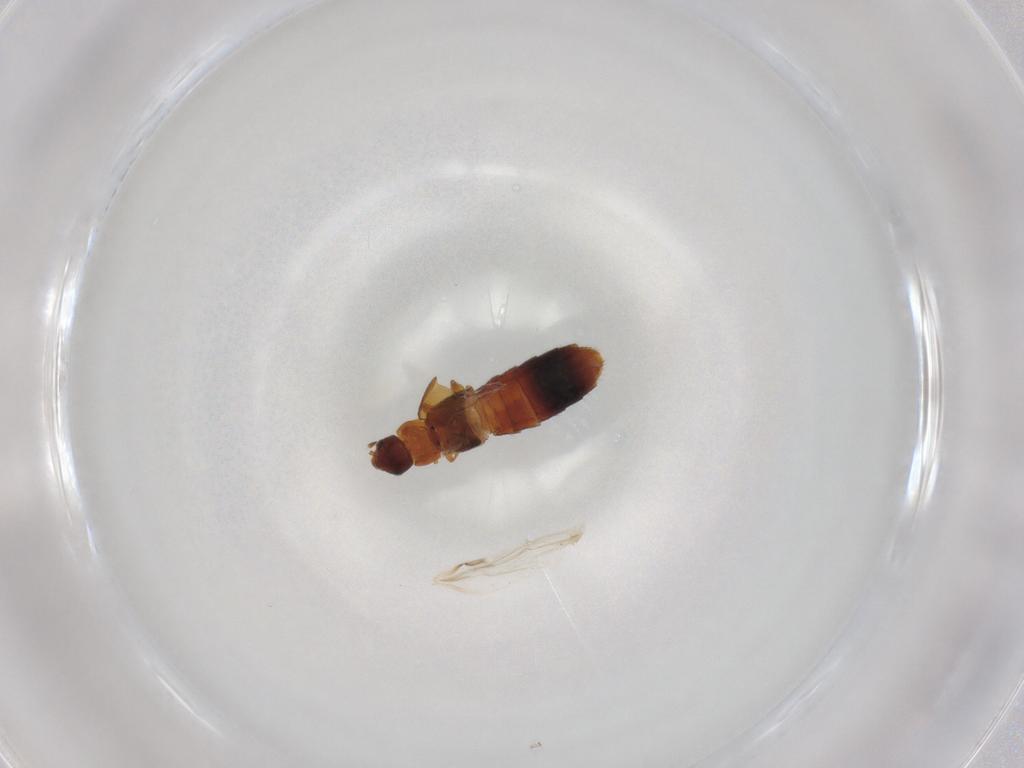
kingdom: Animalia
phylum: Arthropoda
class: Insecta
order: Coleoptera
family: Staphylinidae
